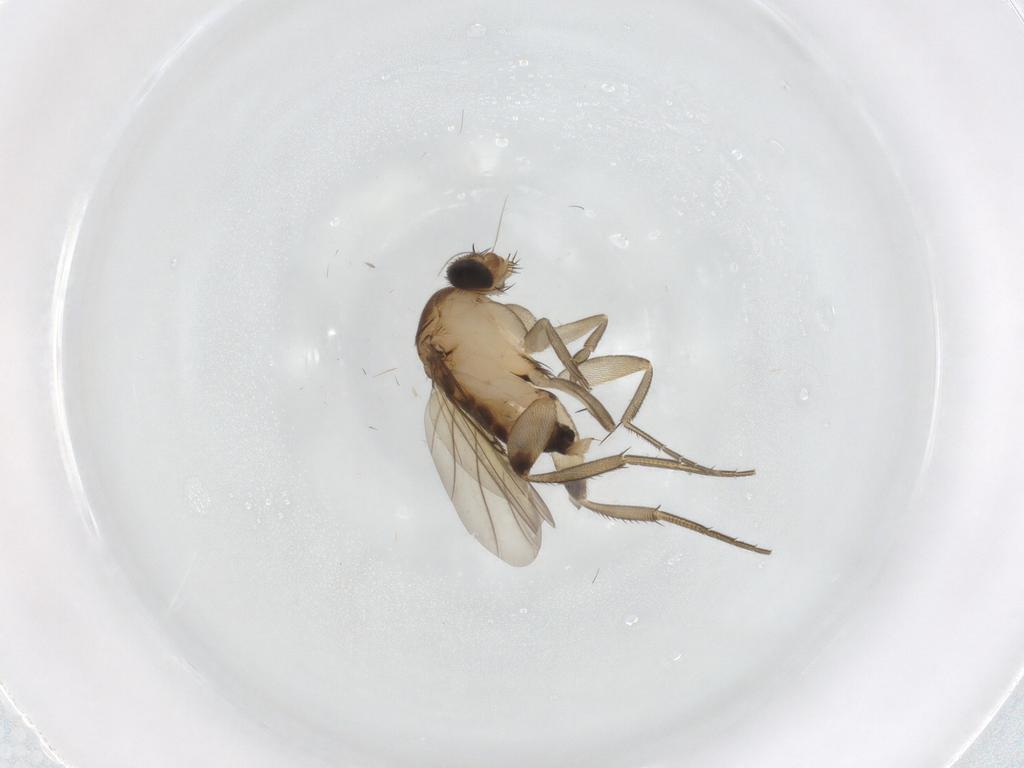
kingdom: Animalia
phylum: Arthropoda
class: Insecta
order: Diptera
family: Phoridae
